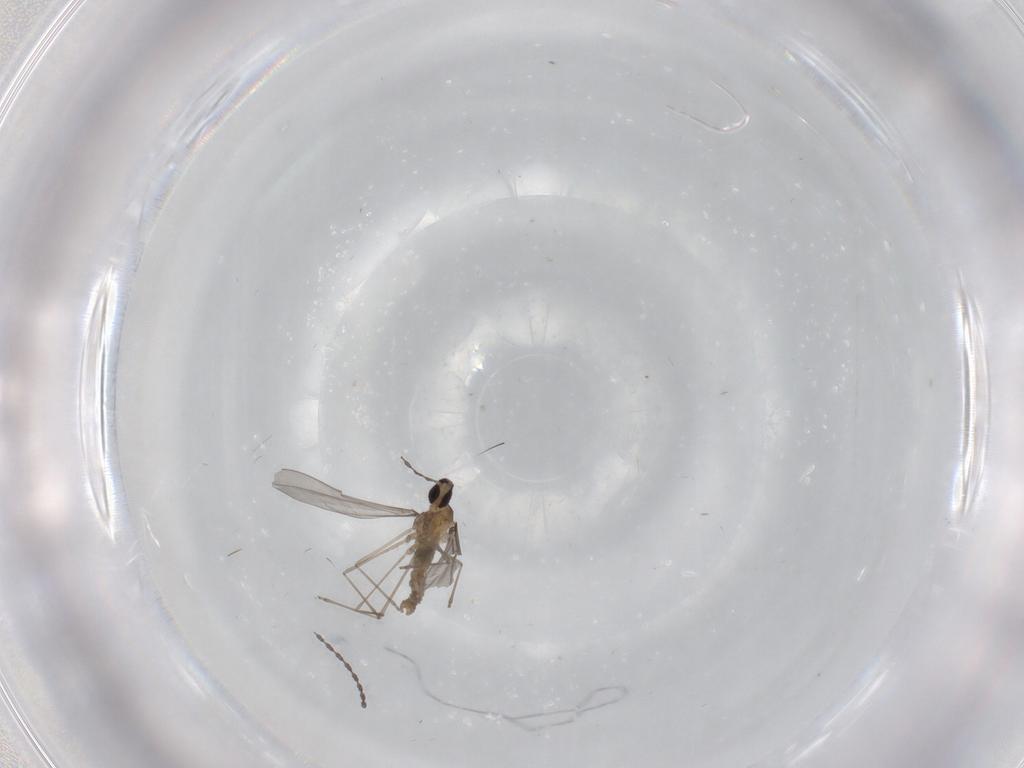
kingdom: Animalia
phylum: Arthropoda
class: Insecta
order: Diptera
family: Cecidomyiidae
